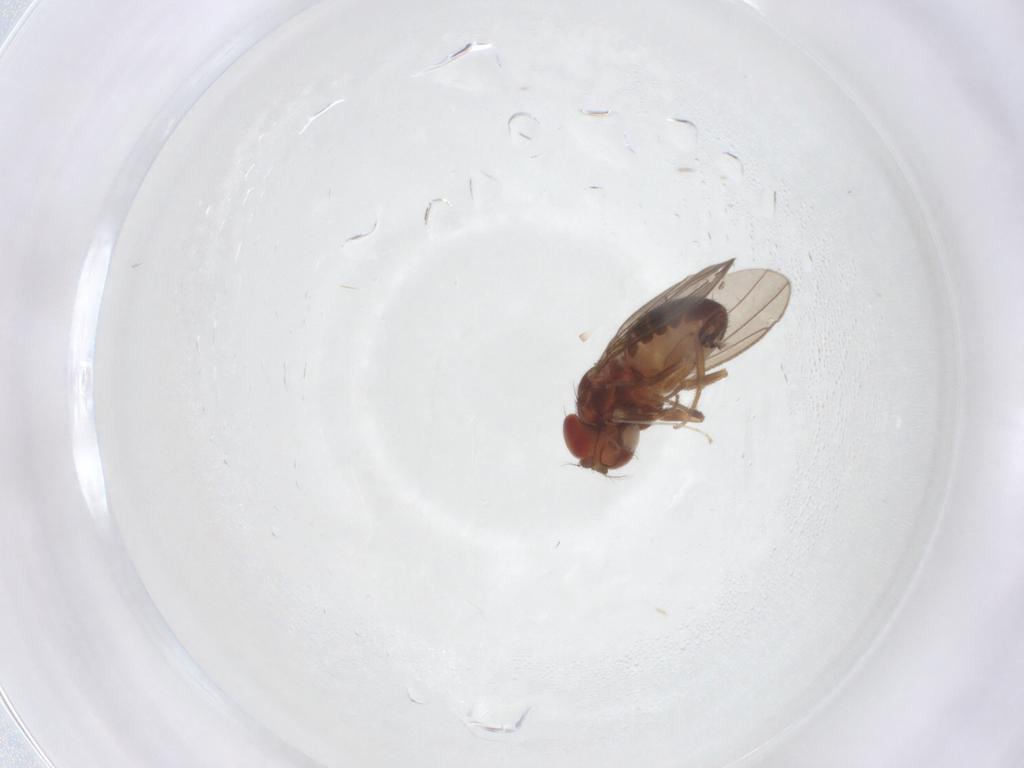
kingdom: Animalia
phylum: Arthropoda
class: Insecta
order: Diptera
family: Drosophilidae
